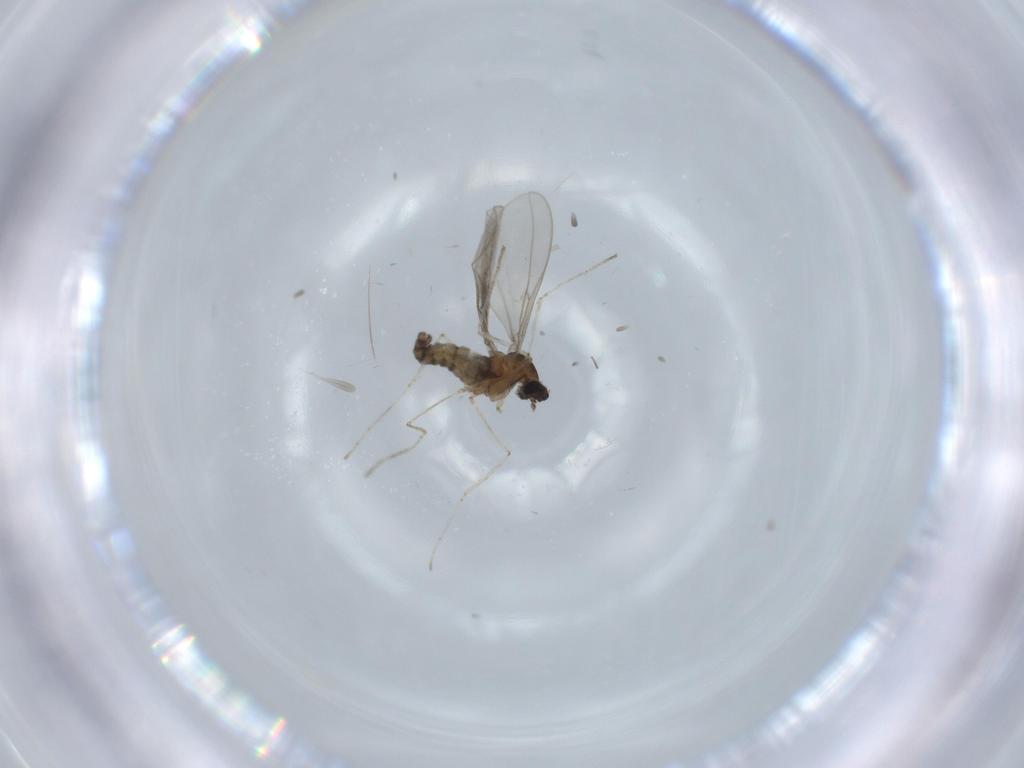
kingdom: Animalia
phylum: Arthropoda
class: Insecta
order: Diptera
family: Cecidomyiidae
